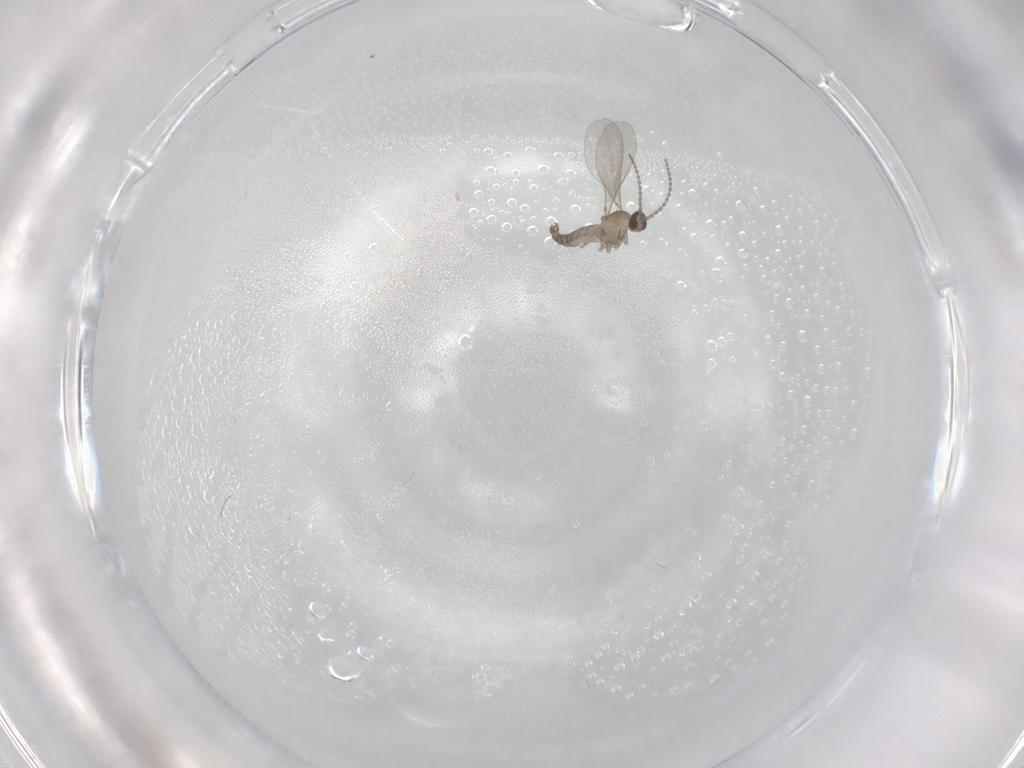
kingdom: Animalia
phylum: Arthropoda
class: Insecta
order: Diptera
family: Cecidomyiidae
